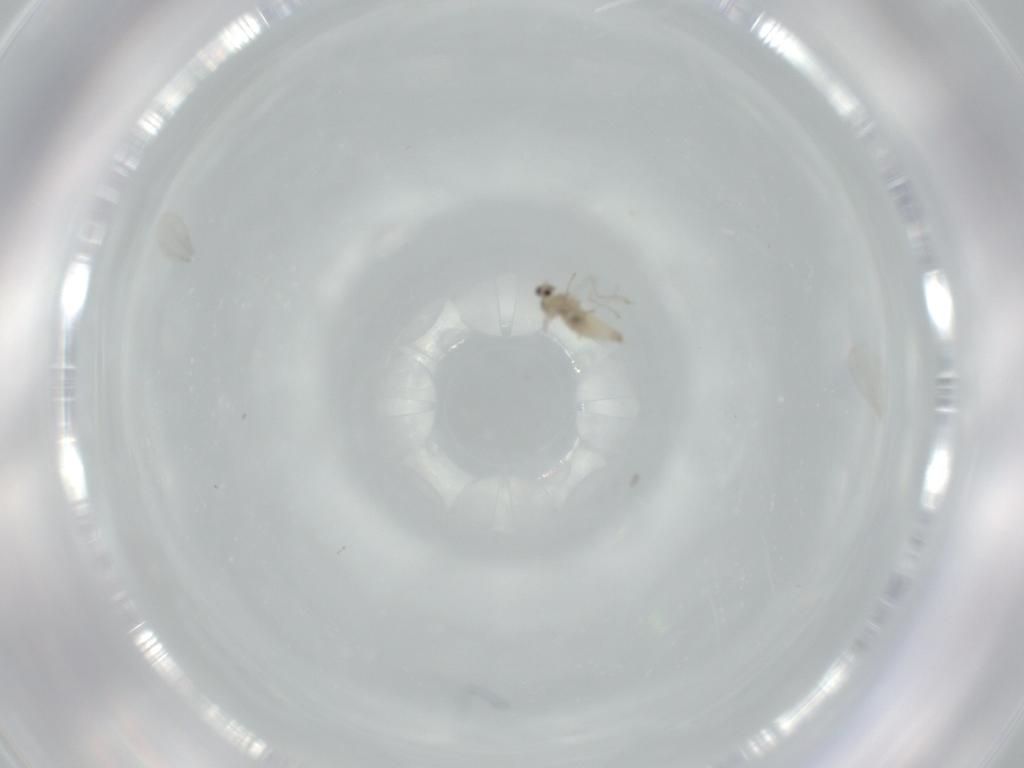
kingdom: Animalia
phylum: Arthropoda
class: Insecta
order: Diptera
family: Cecidomyiidae
